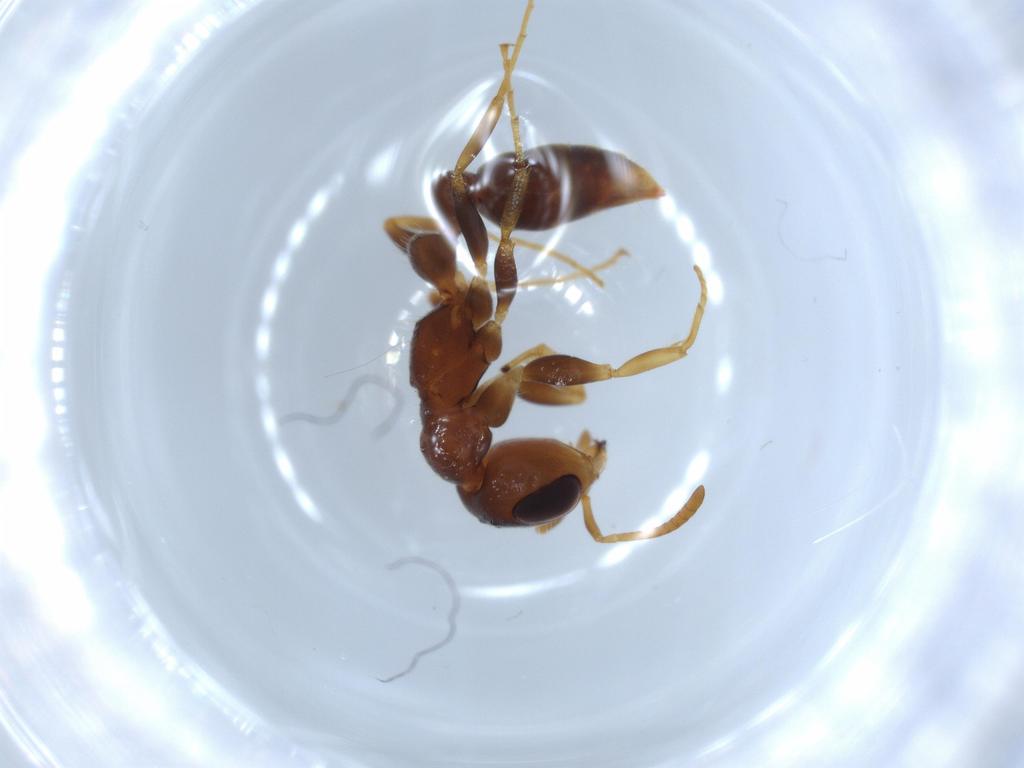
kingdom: Animalia
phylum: Arthropoda
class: Insecta
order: Hymenoptera
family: Formicidae
